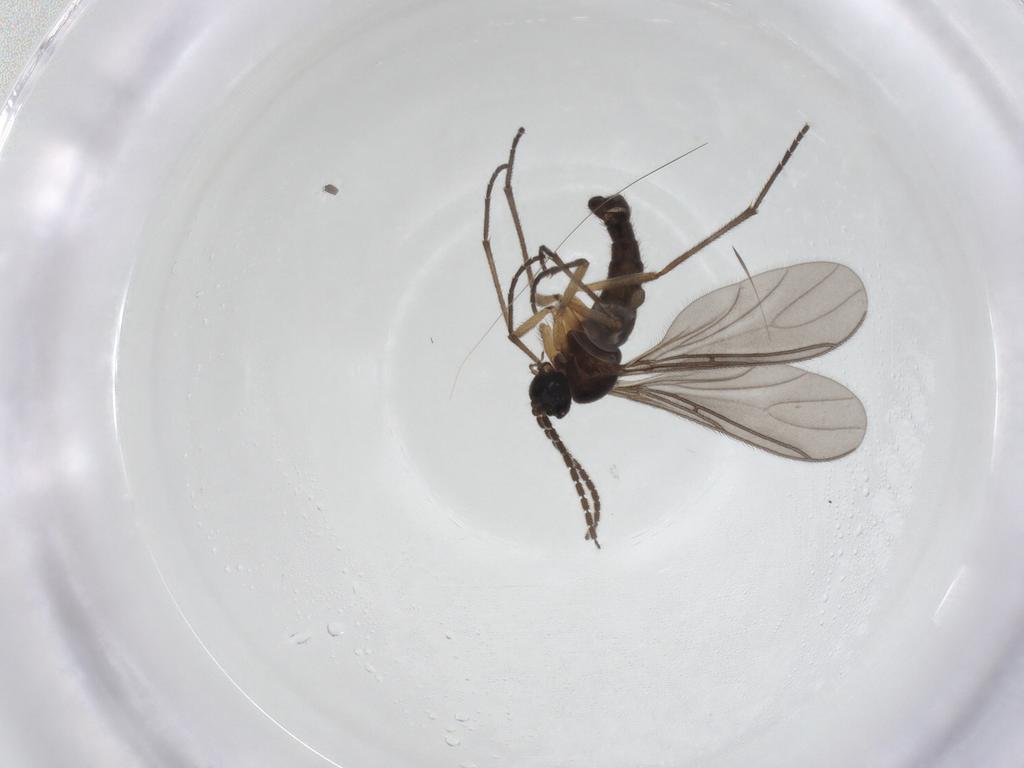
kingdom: Animalia
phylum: Arthropoda
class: Insecta
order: Diptera
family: Sciaridae
